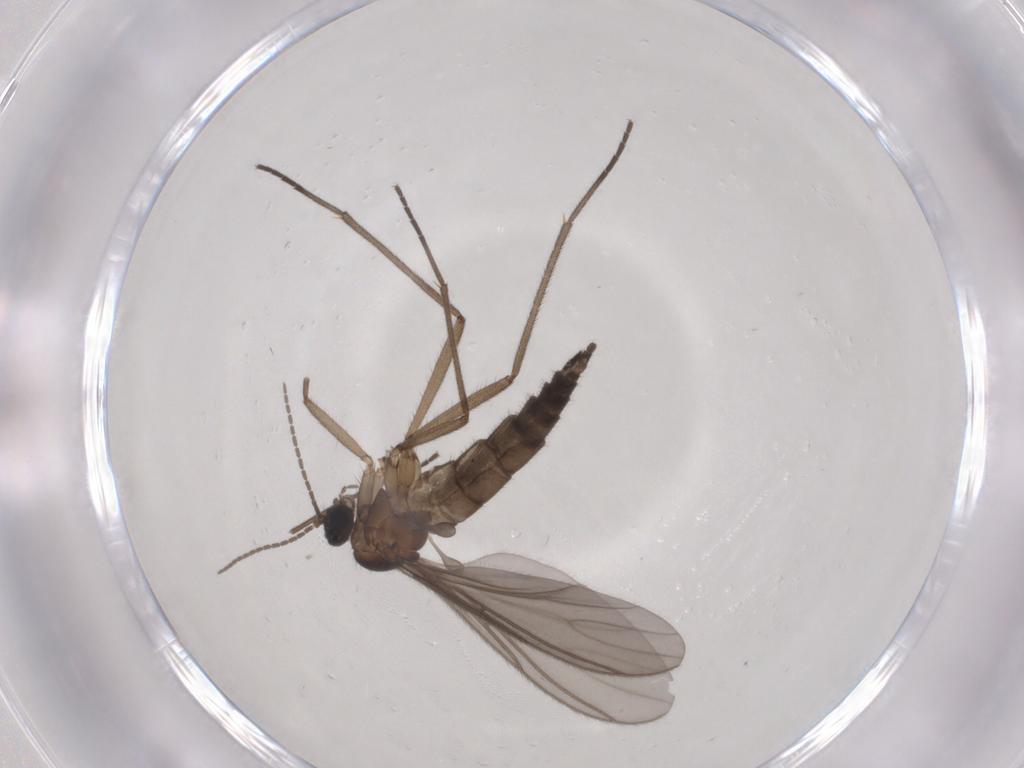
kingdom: Animalia
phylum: Arthropoda
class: Insecta
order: Diptera
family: Sciaridae
